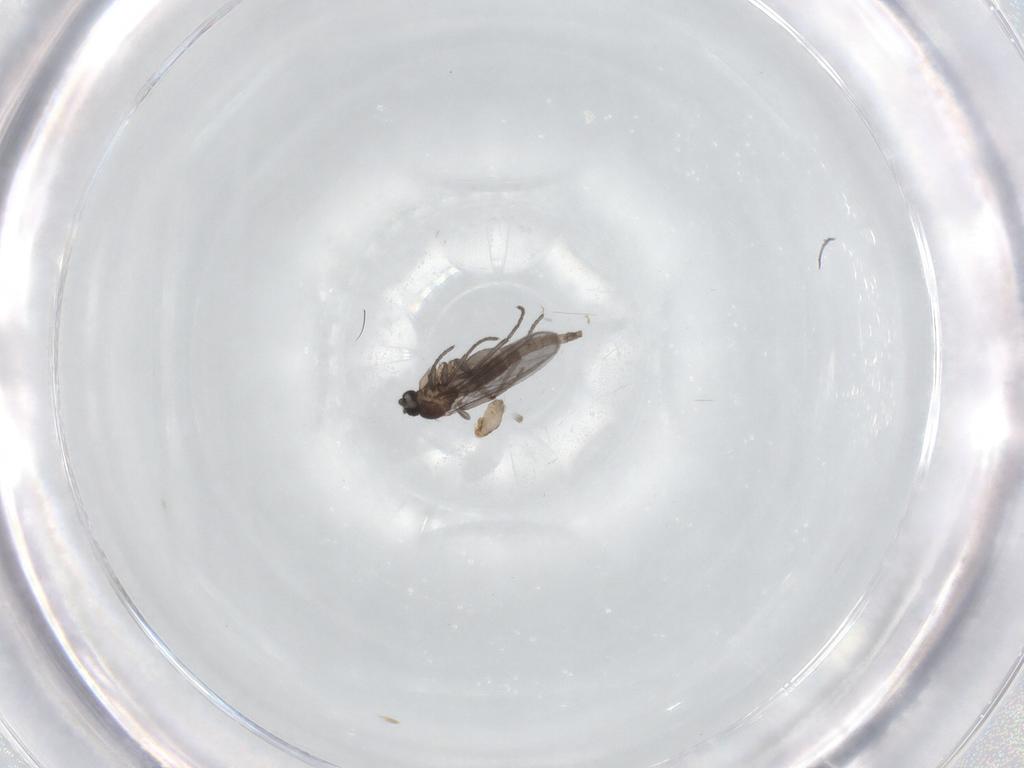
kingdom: Animalia
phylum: Arthropoda
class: Insecta
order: Diptera
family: Cecidomyiidae
